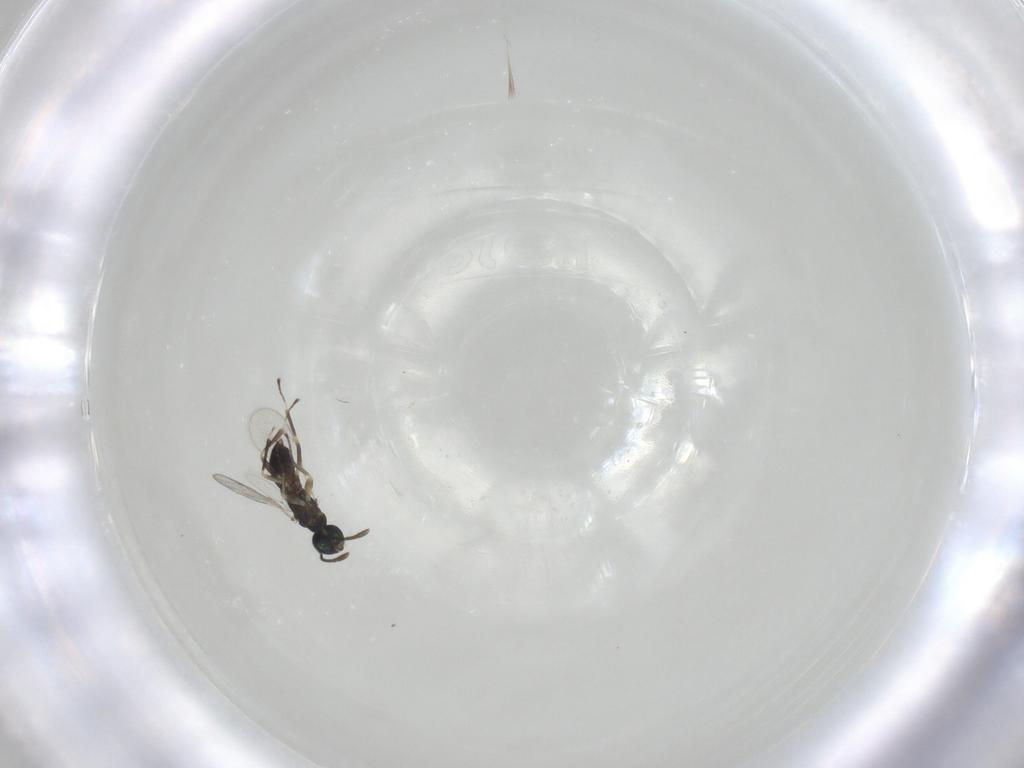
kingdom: Animalia
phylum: Arthropoda
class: Insecta
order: Hymenoptera
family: Eupelmidae
